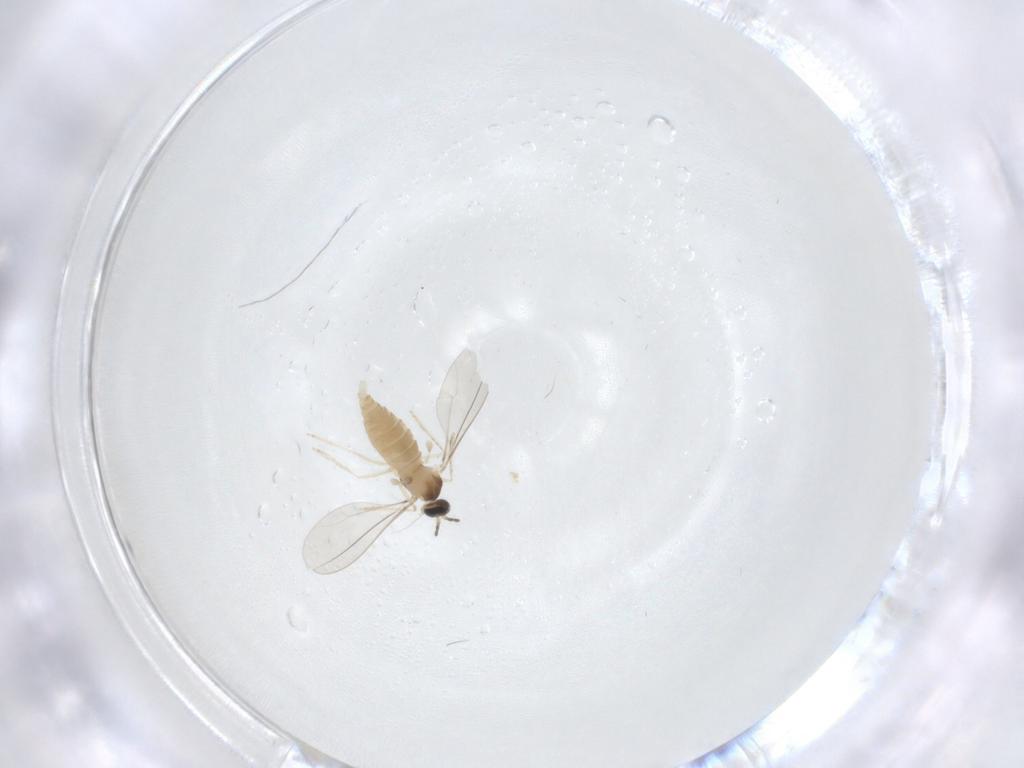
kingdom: Animalia
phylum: Arthropoda
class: Insecta
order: Diptera
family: Cecidomyiidae
